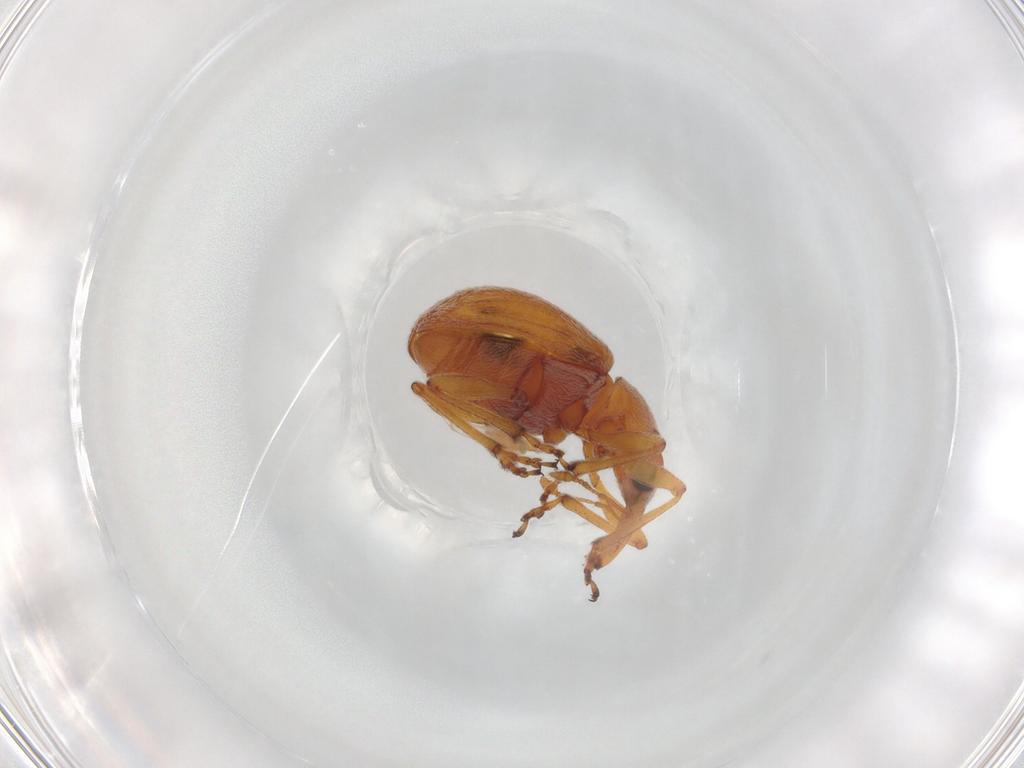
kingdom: Animalia
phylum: Arthropoda
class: Insecta
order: Coleoptera
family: Brentidae
